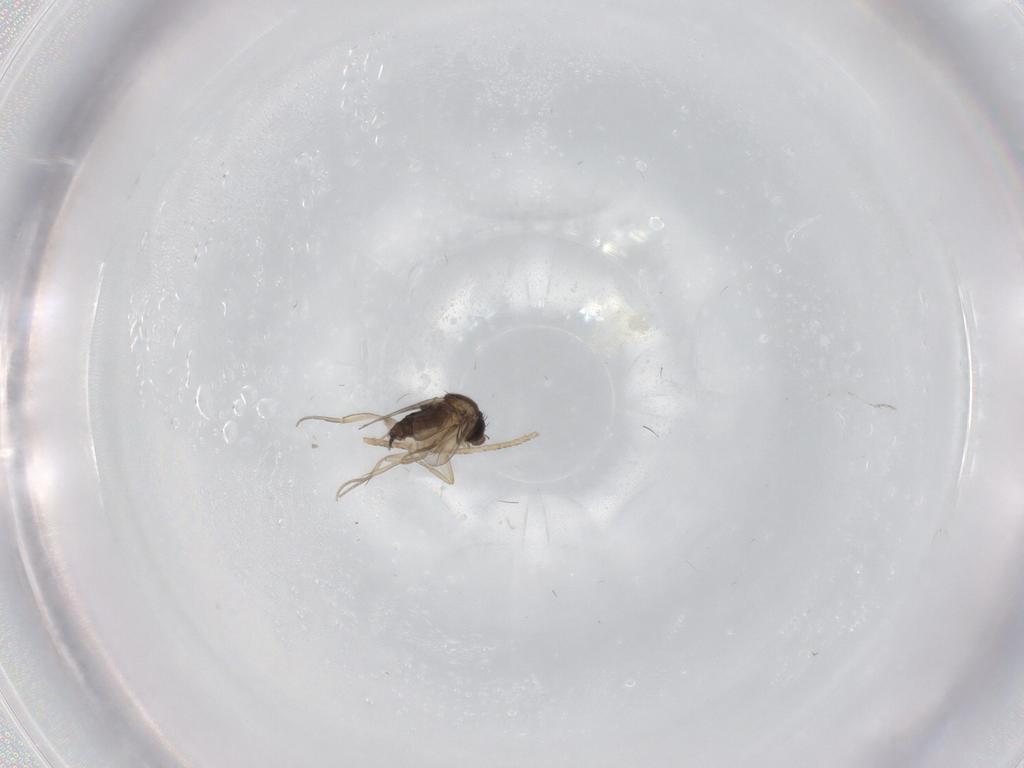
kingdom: Animalia
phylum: Arthropoda
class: Insecta
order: Diptera
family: Phoridae
